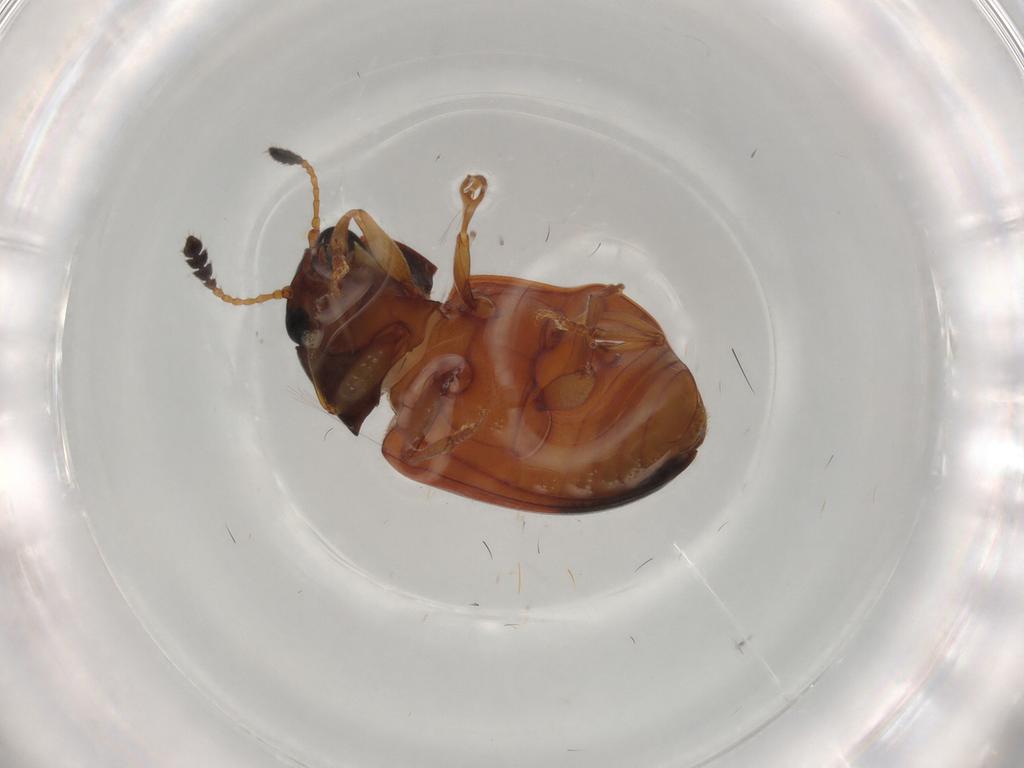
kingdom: Animalia
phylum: Arthropoda
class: Insecta
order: Coleoptera
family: Erotylidae
